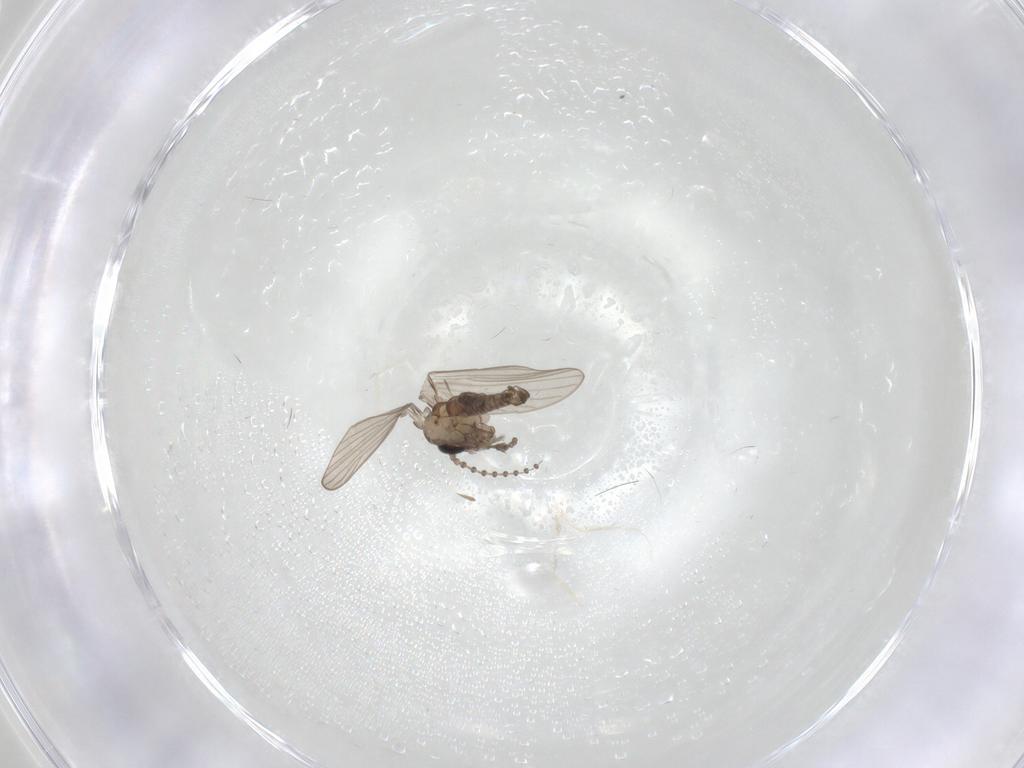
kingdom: Animalia
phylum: Arthropoda
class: Insecta
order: Diptera
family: Psychodidae
